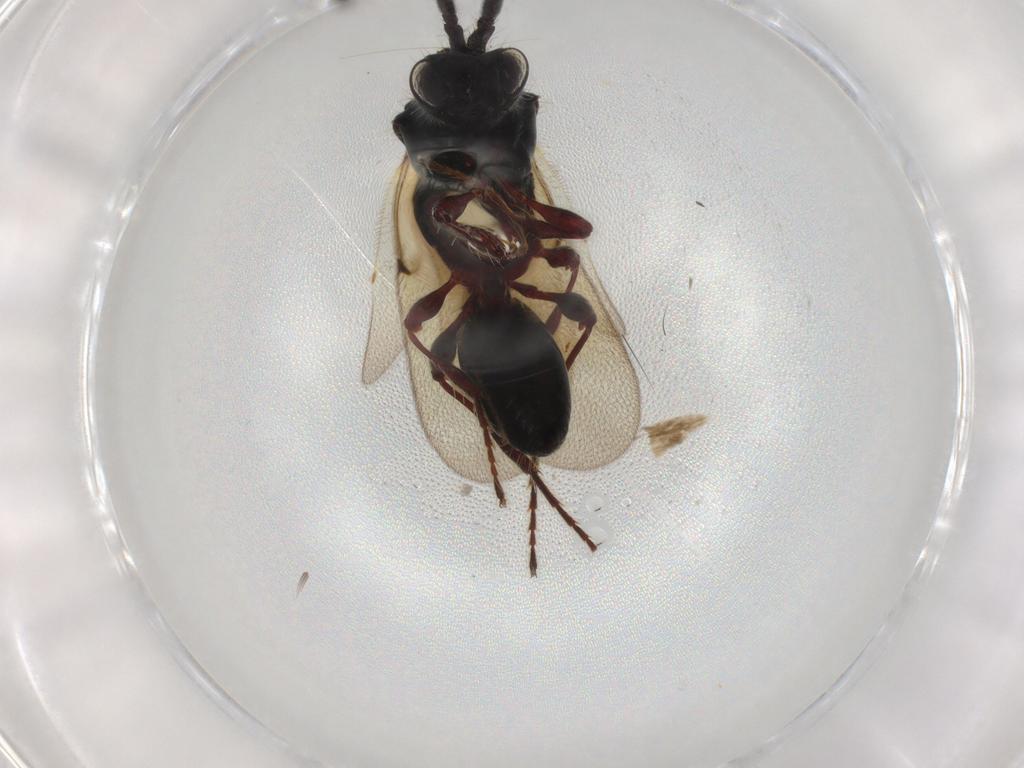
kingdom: Animalia
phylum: Arthropoda
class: Insecta
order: Hymenoptera
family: Diapriidae
